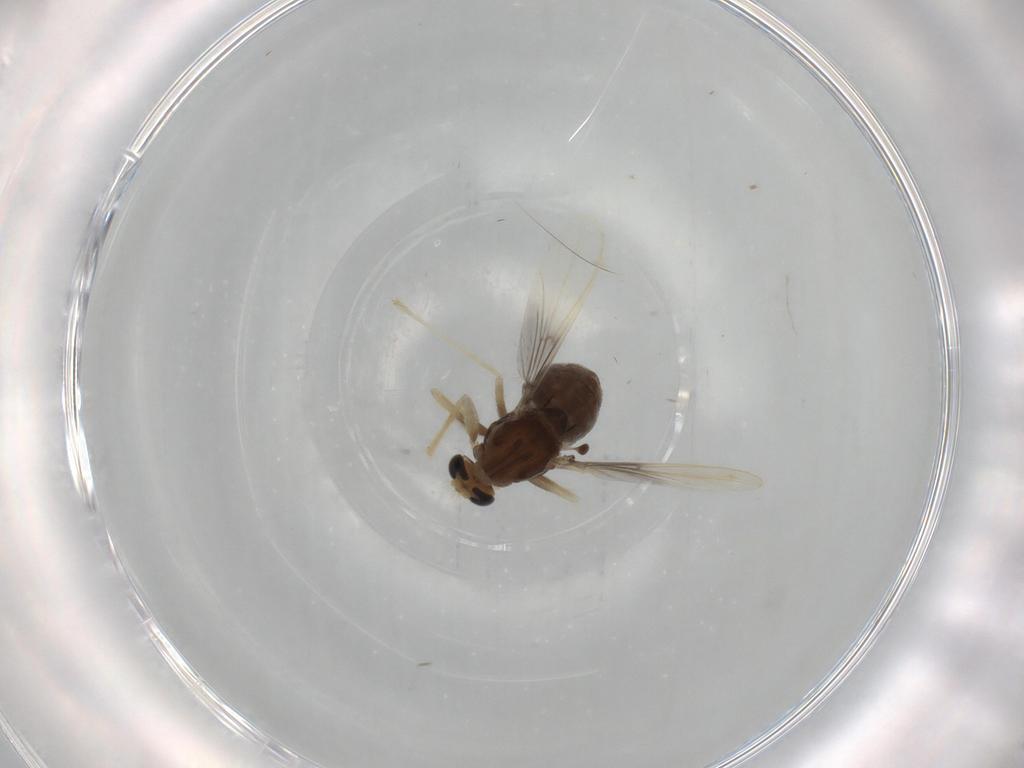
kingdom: Animalia
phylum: Arthropoda
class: Insecta
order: Diptera
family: Chironomidae
